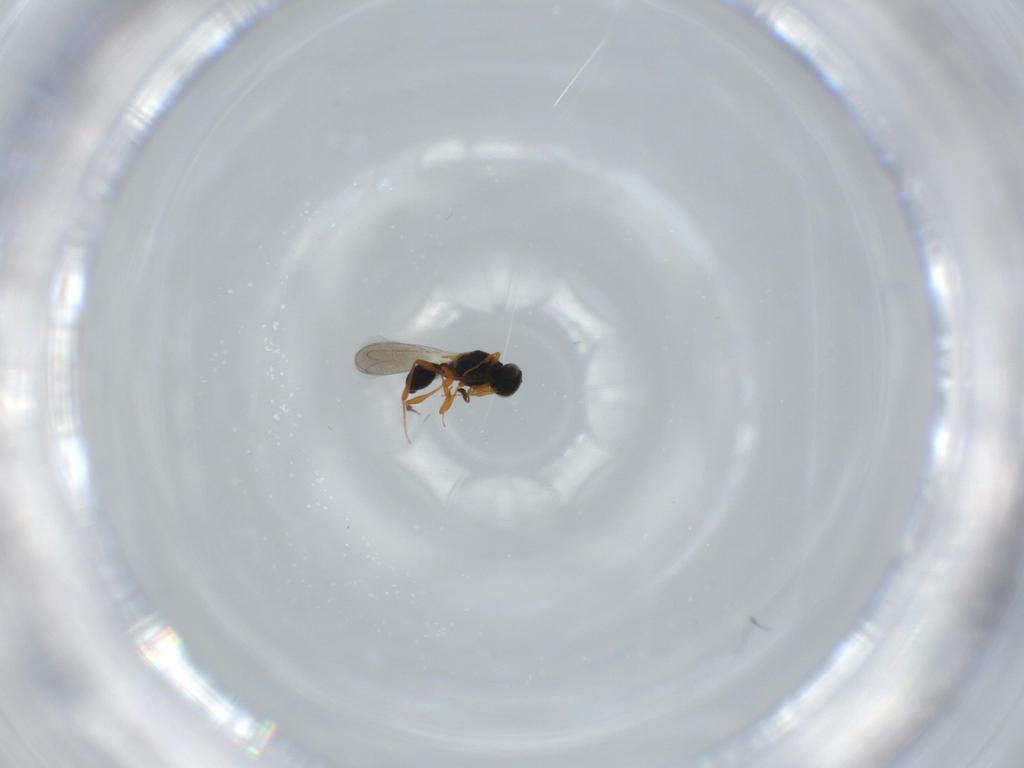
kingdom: Animalia
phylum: Arthropoda
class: Insecta
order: Hymenoptera
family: Platygastridae
